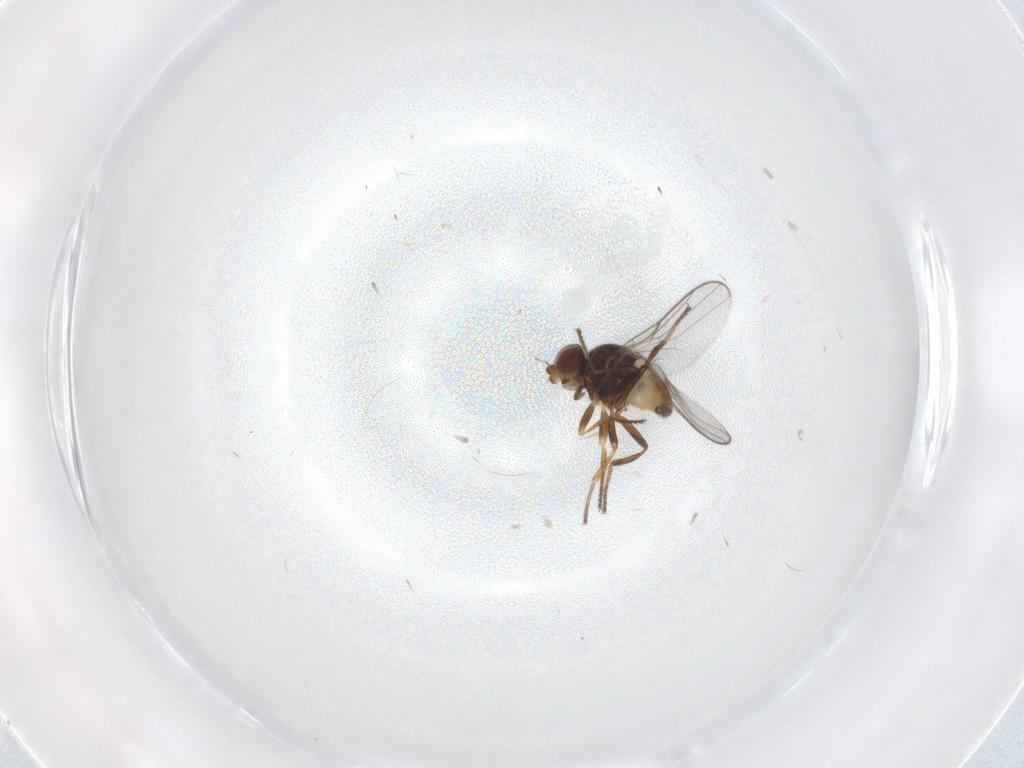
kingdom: Animalia
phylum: Arthropoda
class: Insecta
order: Diptera
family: Chloropidae
